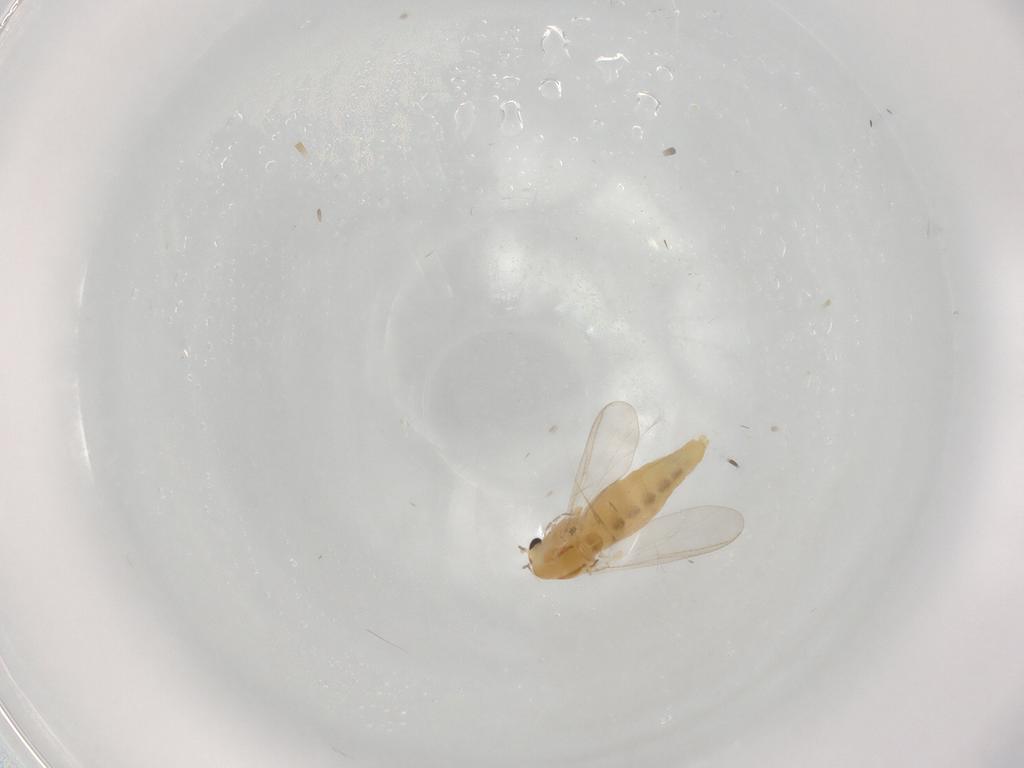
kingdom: Animalia
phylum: Arthropoda
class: Insecta
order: Diptera
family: Chironomidae
